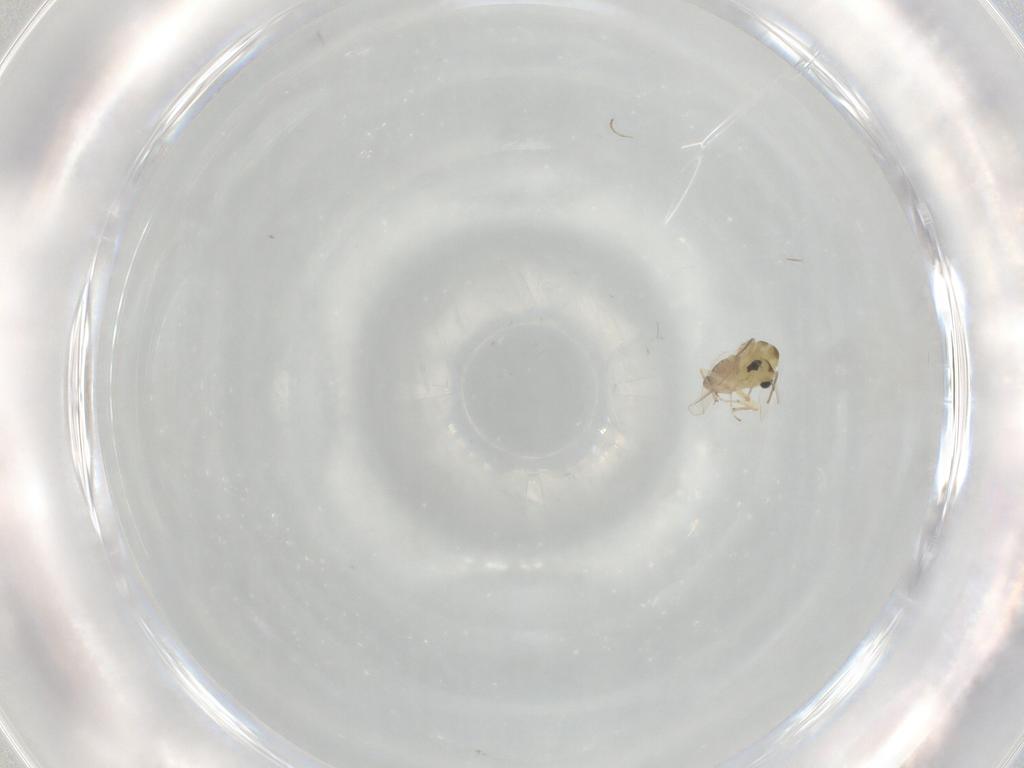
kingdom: Animalia
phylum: Arthropoda
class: Insecta
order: Diptera
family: Chironomidae
